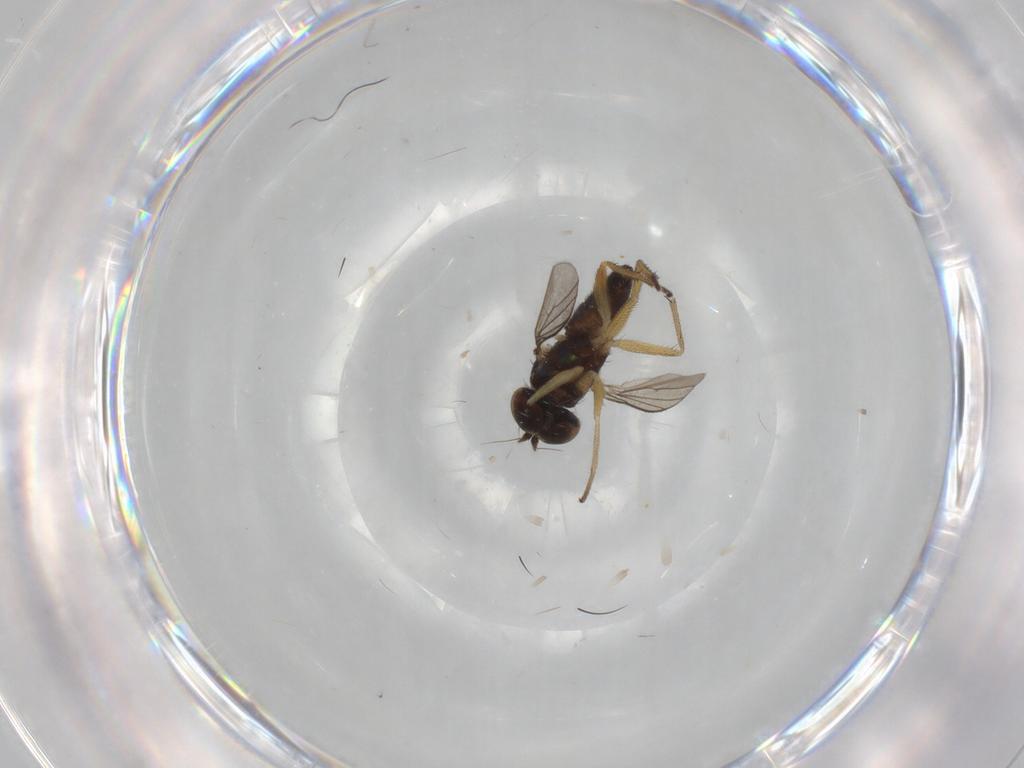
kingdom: Animalia
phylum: Arthropoda
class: Insecta
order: Diptera
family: Dolichopodidae
